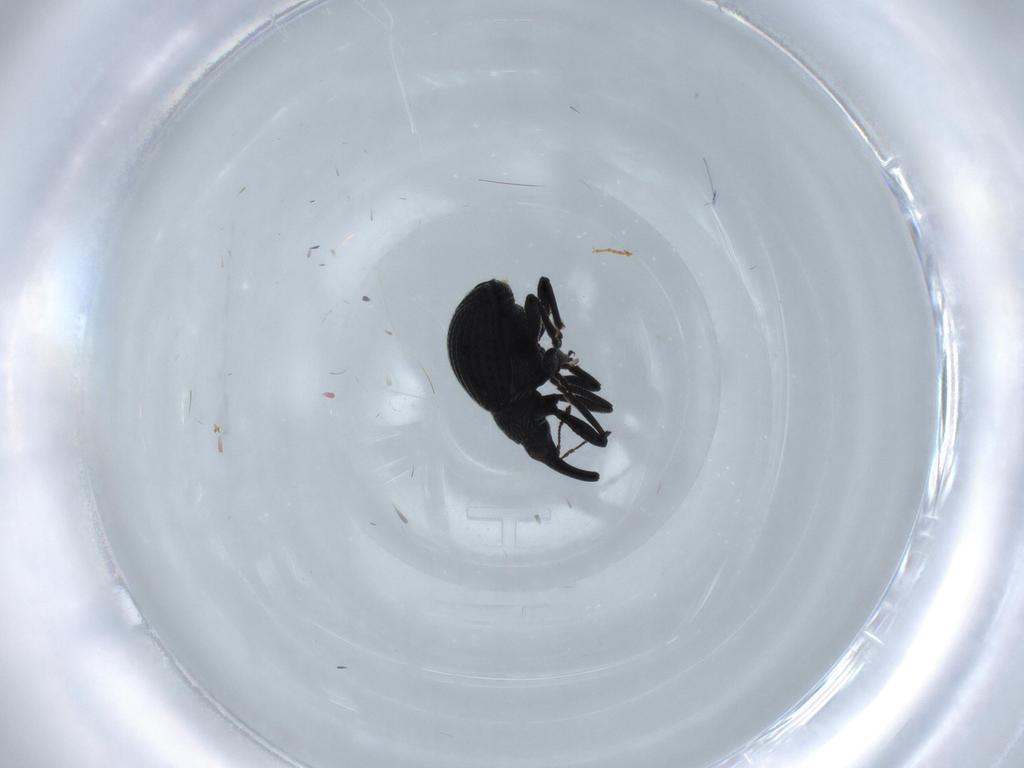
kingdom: Animalia
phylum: Arthropoda
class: Insecta
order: Coleoptera
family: Brentidae
